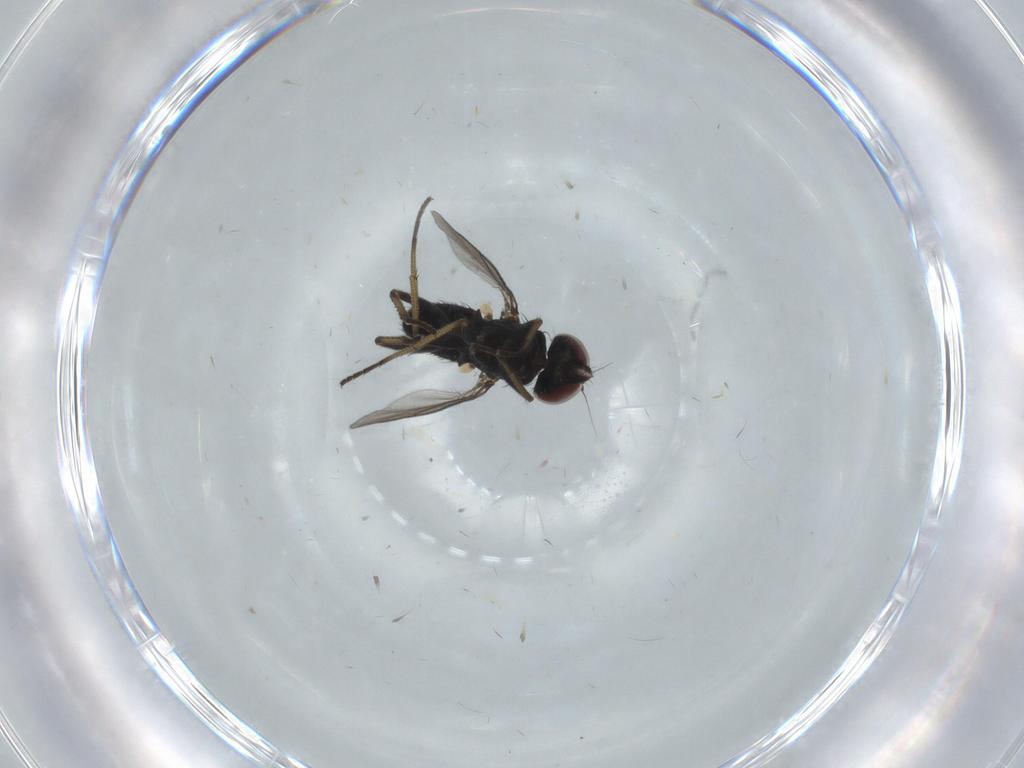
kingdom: Animalia
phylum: Arthropoda
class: Insecta
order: Diptera
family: Dolichopodidae
